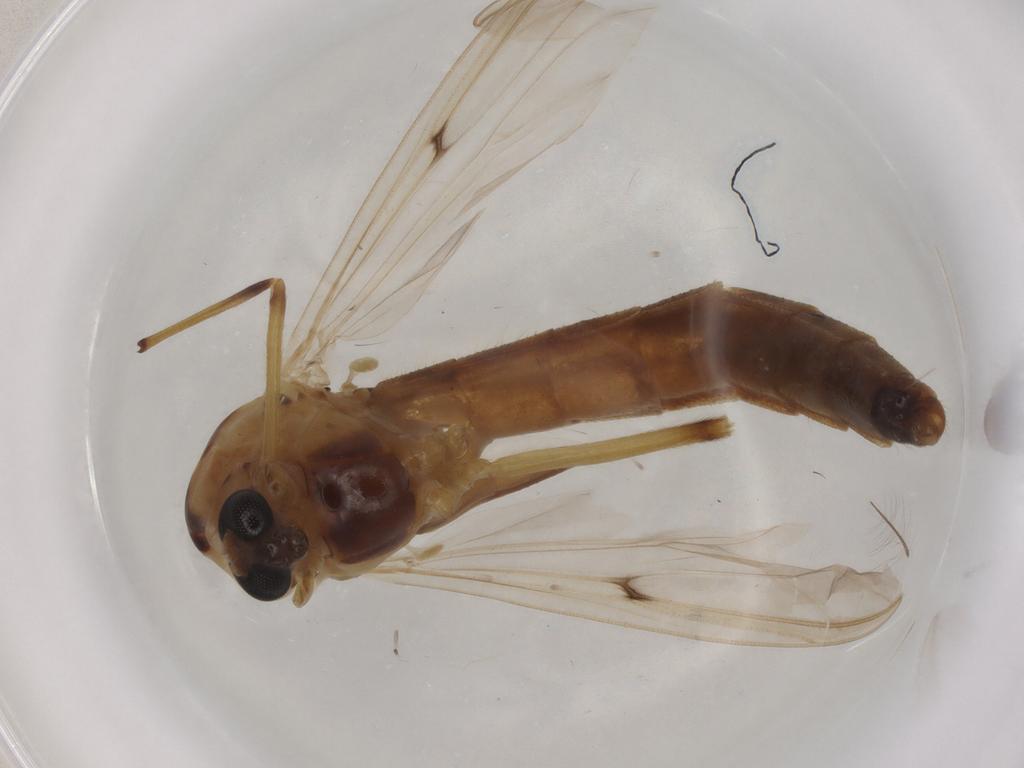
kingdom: Animalia
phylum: Arthropoda
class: Insecta
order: Diptera
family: Chironomidae
